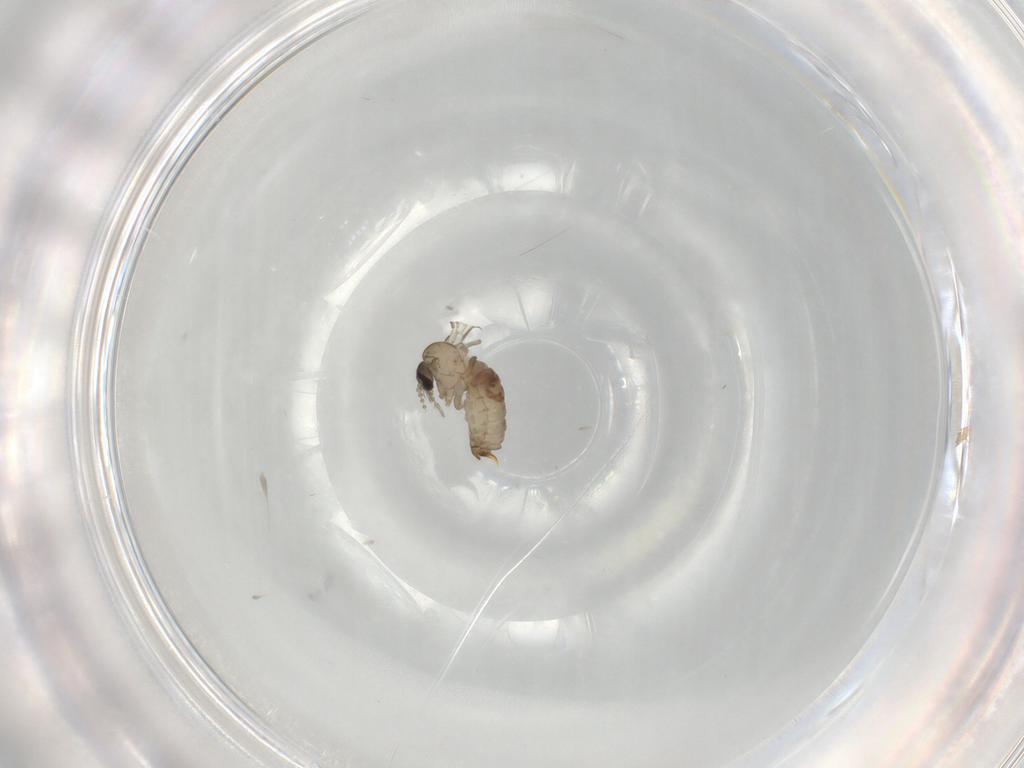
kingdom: Animalia
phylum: Arthropoda
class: Insecta
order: Diptera
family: Psychodidae
